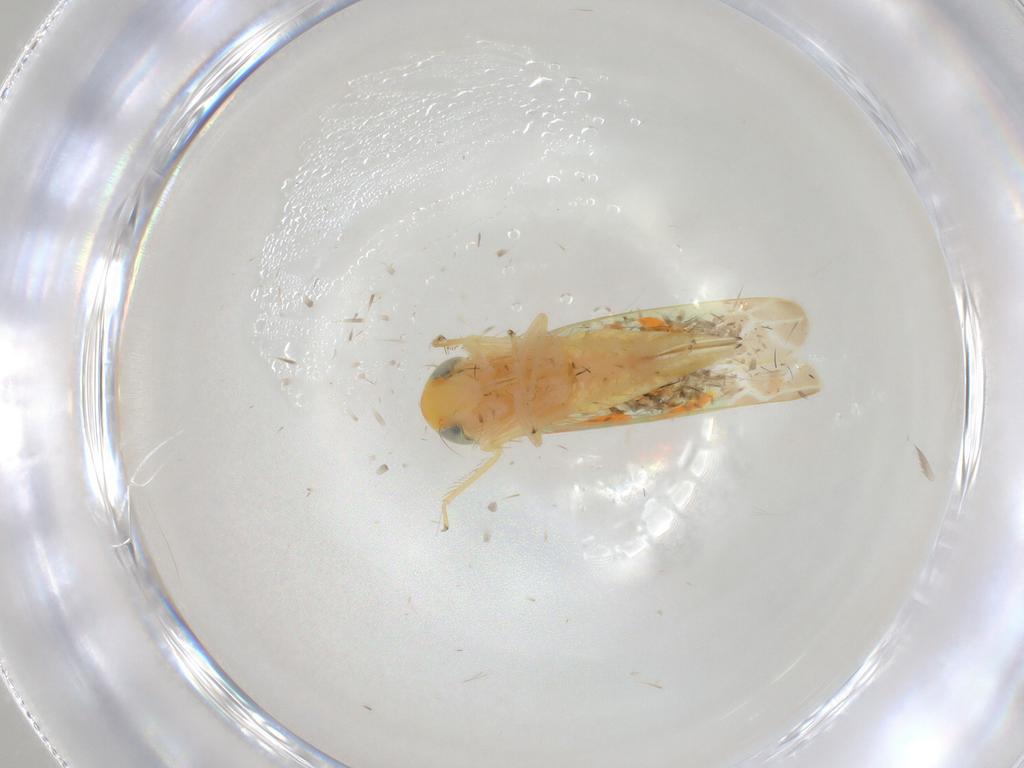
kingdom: Animalia
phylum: Arthropoda
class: Insecta
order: Hemiptera
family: Cicadellidae
